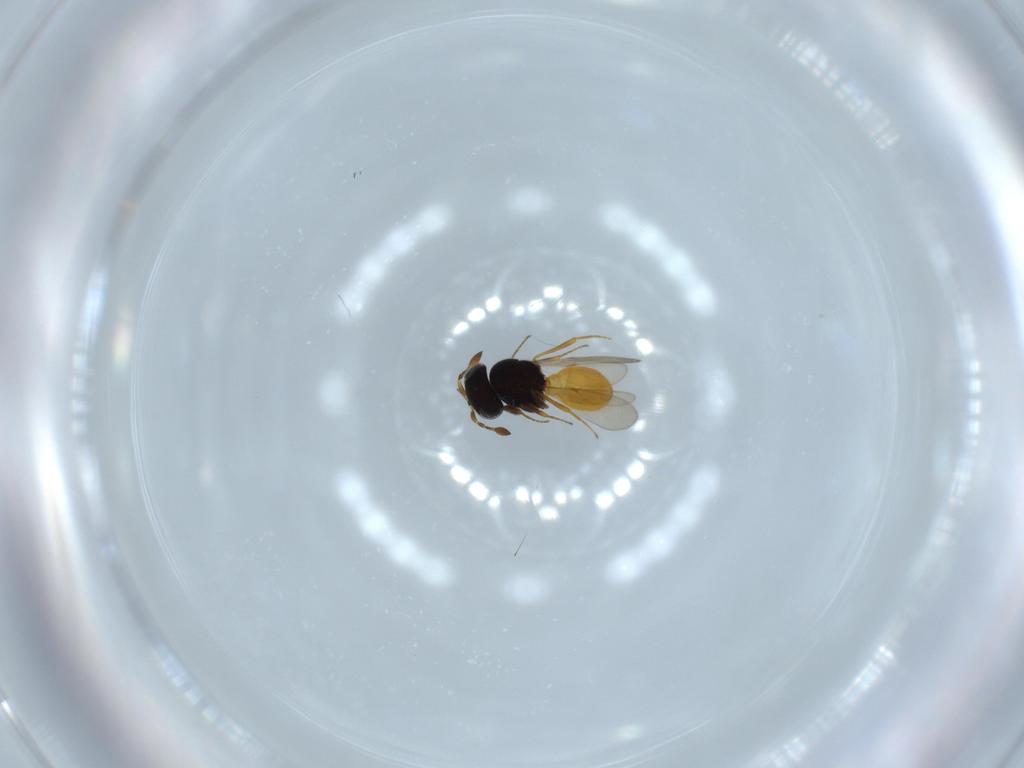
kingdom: Animalia
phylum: Arthropoda
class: Insecta
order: Hymenoptera
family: Scelionidae
